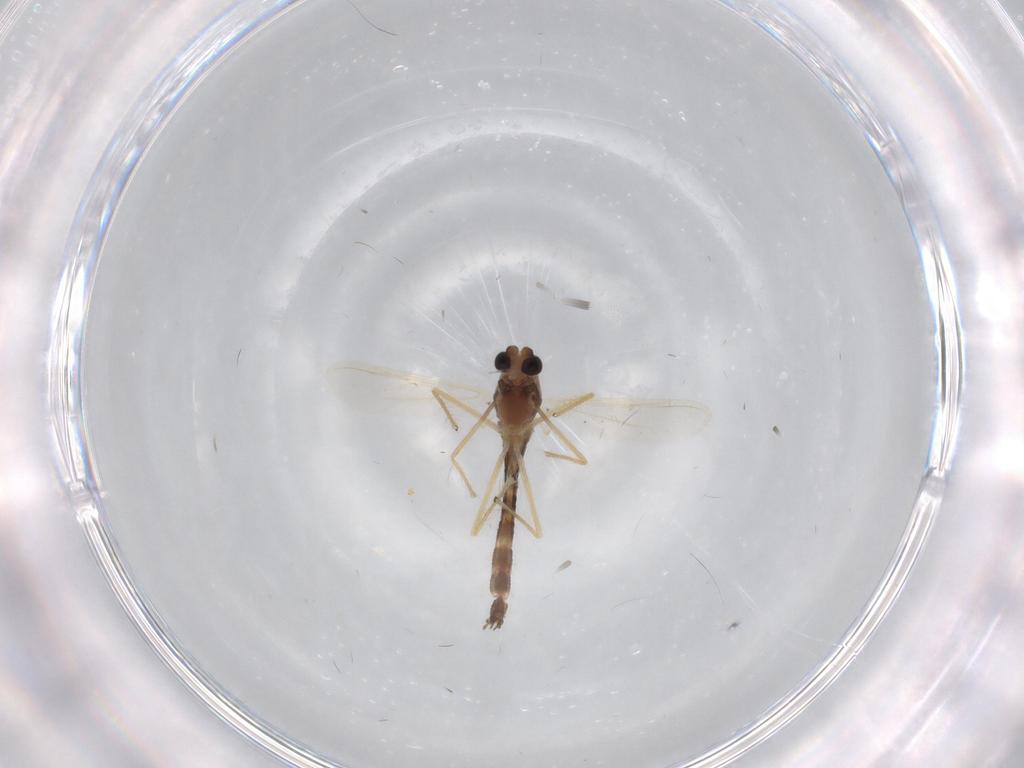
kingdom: Animalia
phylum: Arthropoda
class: Insecta
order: Diptera
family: Chironomidae
